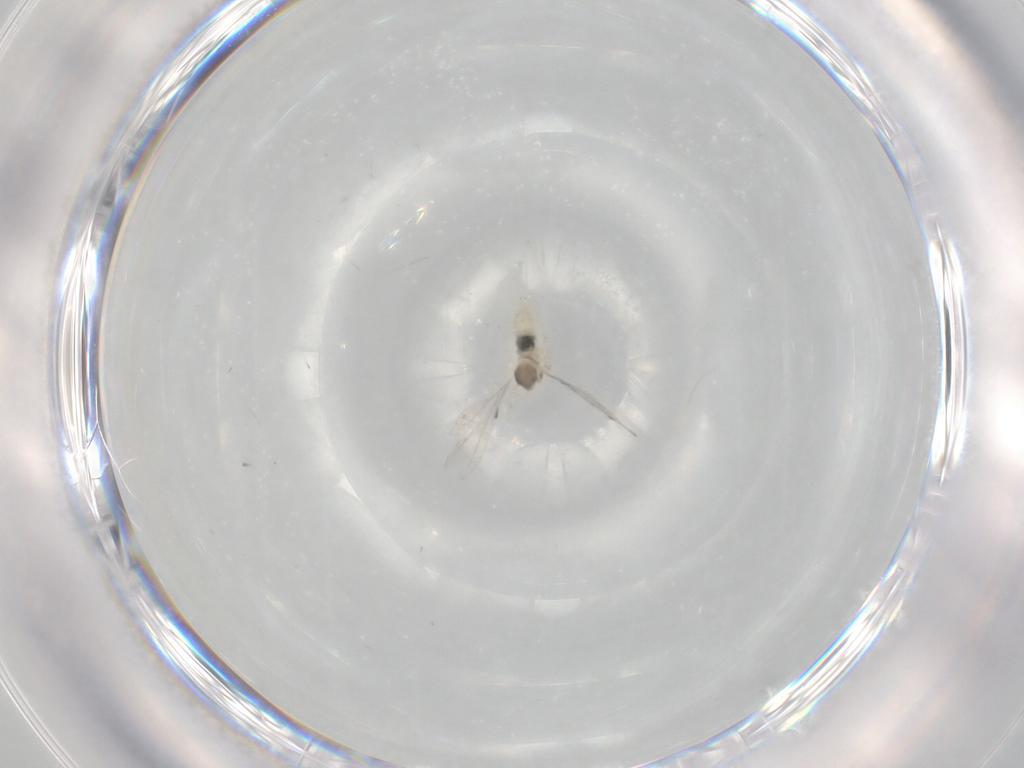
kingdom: Animalia
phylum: Arthropoda
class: Insecta
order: Diptera
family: Cecidomyiidae
